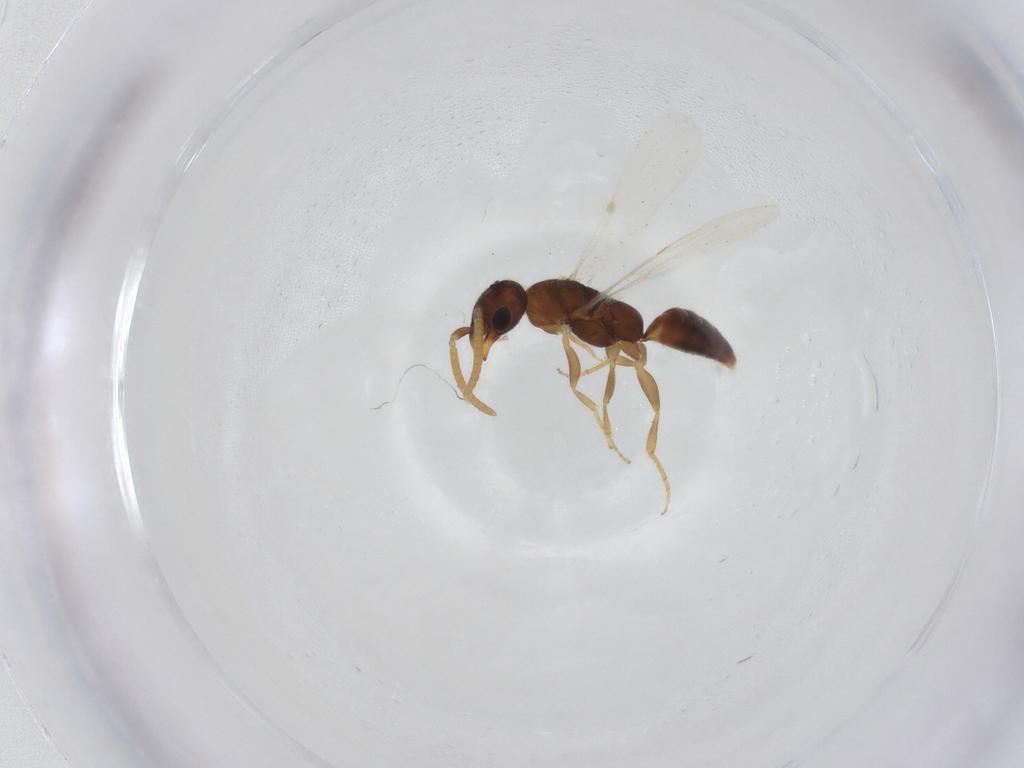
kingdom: Animalia
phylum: Arthropoda
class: Insecta
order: Hymenoptera
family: Bethylidae
